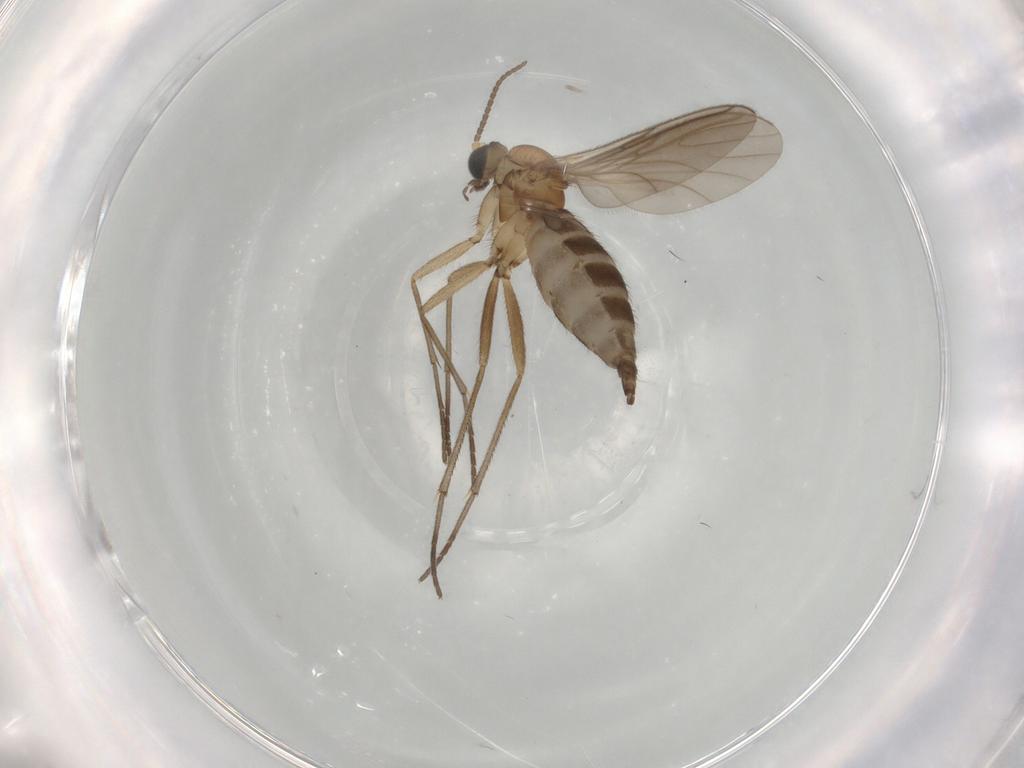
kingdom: Animalia
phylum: Arthropoda
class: Insecta
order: Diptera
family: Sciaridae
